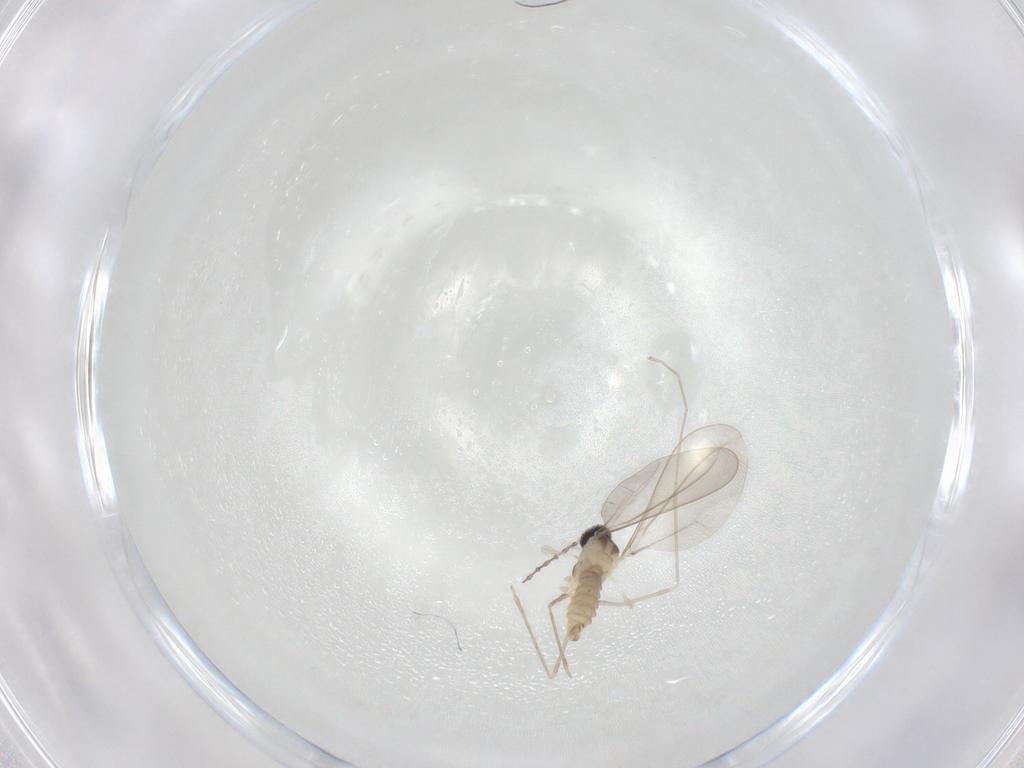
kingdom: Animalia
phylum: Arthropoda
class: Insecta
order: Diptera
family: Cecidomyiidae
